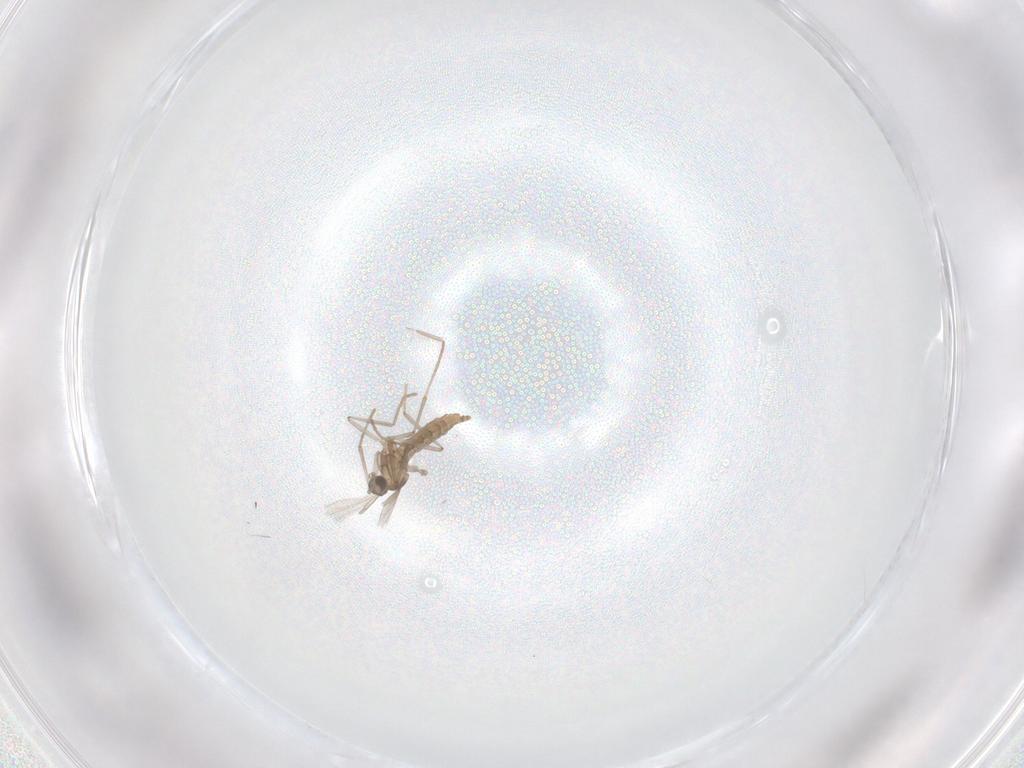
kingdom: Animalia
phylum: Arthropoda
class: Insecta
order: Diptera
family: Cecidomyiidae
